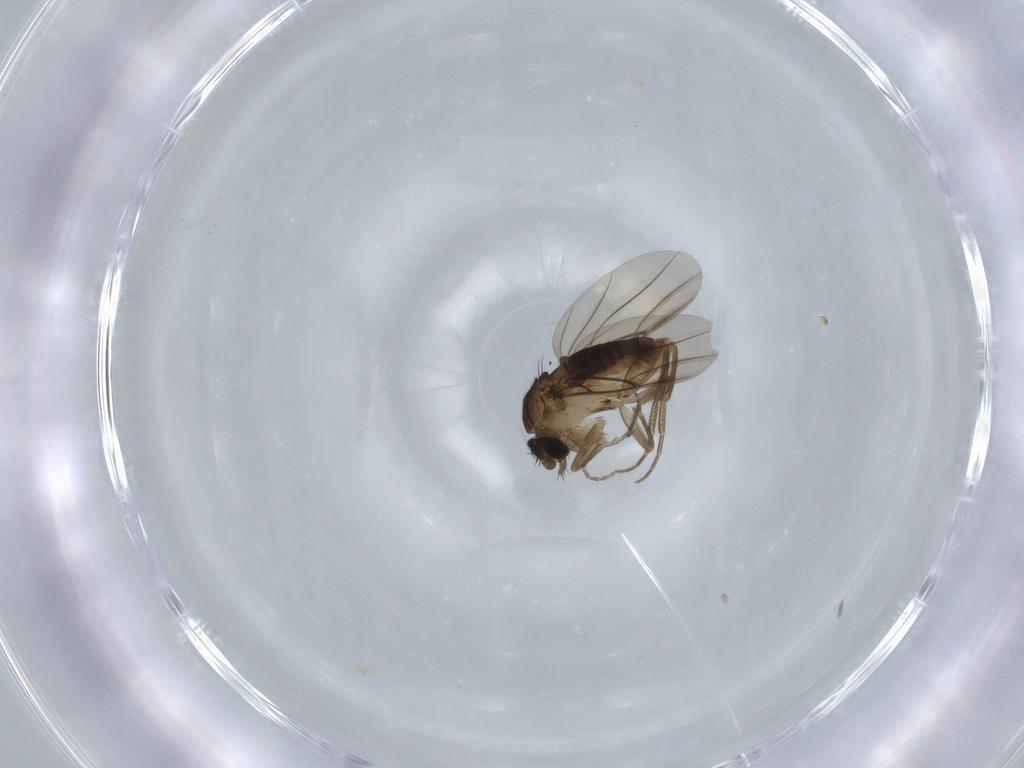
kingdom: Animalia
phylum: Arthropoda
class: Insecta
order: Diptera
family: Phoridae
